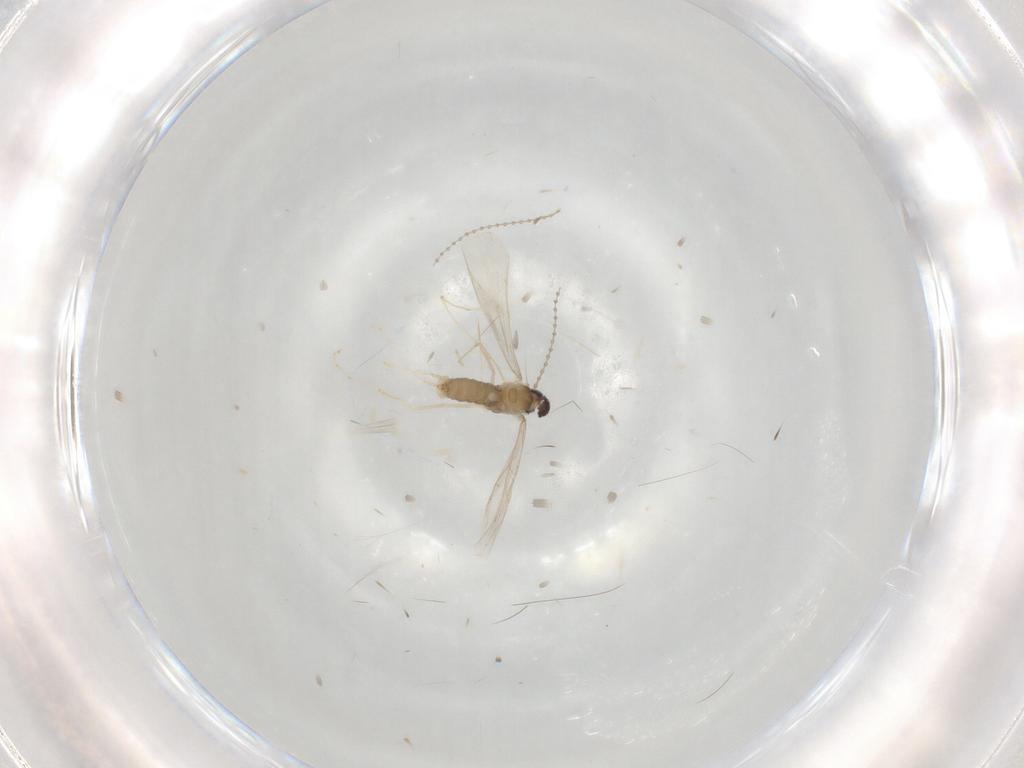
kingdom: Animalia
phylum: Arthropoda
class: Insecta
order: Diptera
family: Cecidomyiidae
